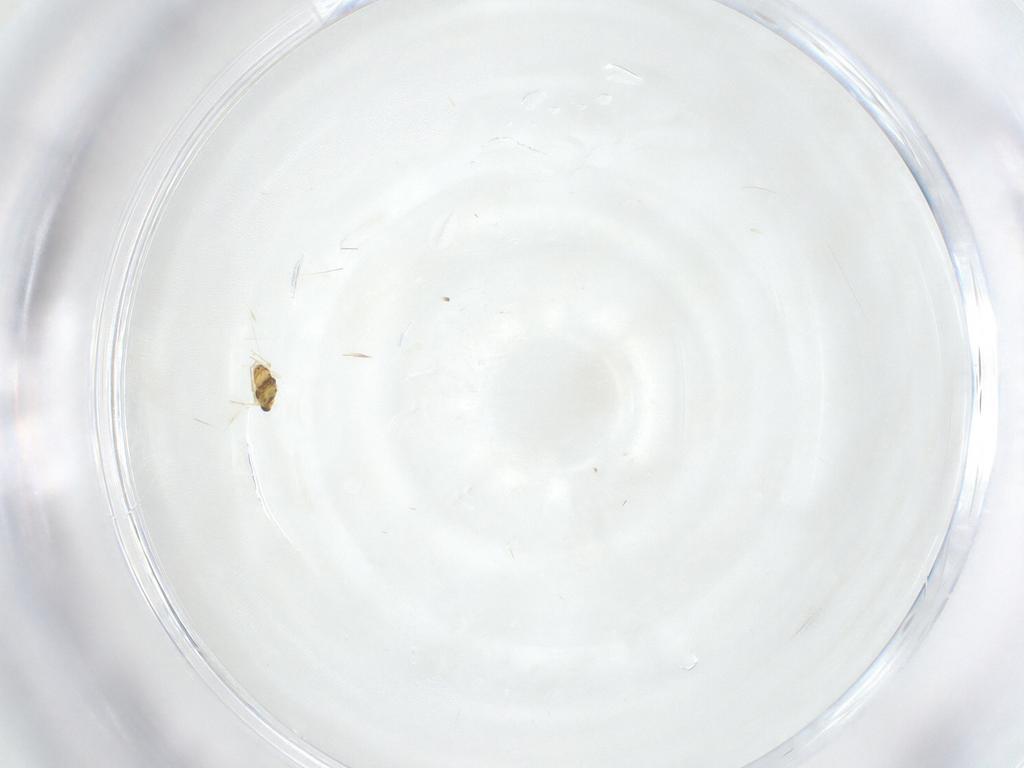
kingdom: Animalia
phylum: Arthropoda
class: Insecta
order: Hymenoptera
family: Aphelinidae
